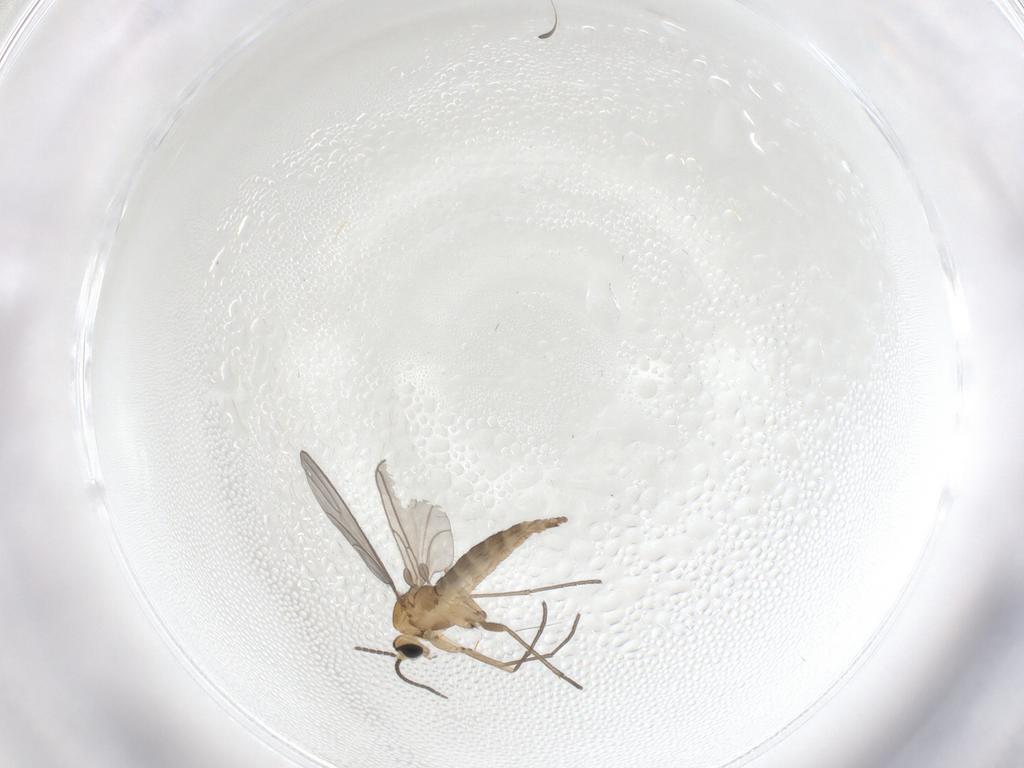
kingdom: Animalia
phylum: Arthropoda
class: Insecta
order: Diptera
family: Sciaridae
